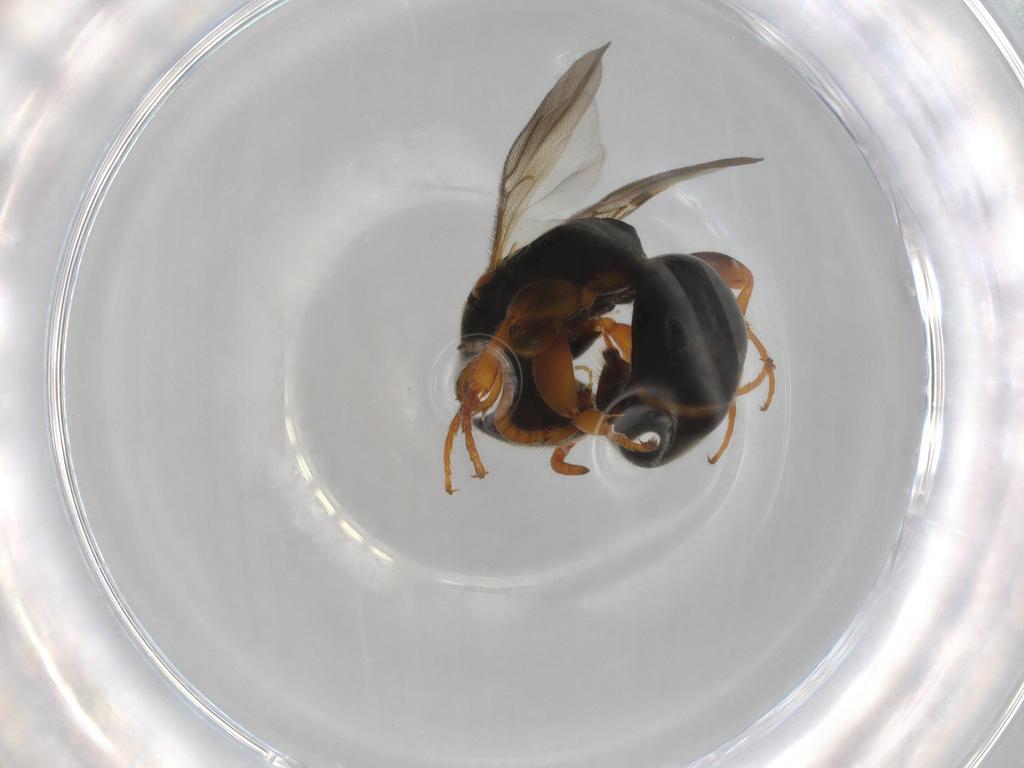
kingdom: Animalia
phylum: Arthropoda
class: Insecta
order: Hymenoptera
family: Bethylidae
